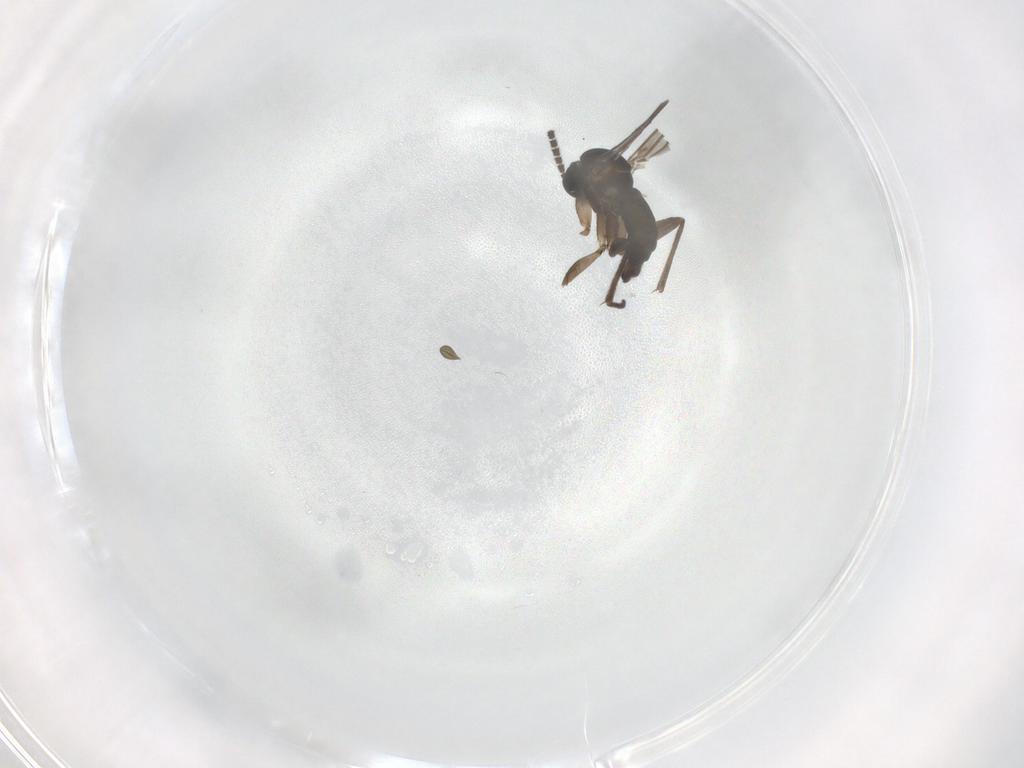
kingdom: Animalia
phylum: Arthropoda
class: Insecta
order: Diptera
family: Sciaridae
